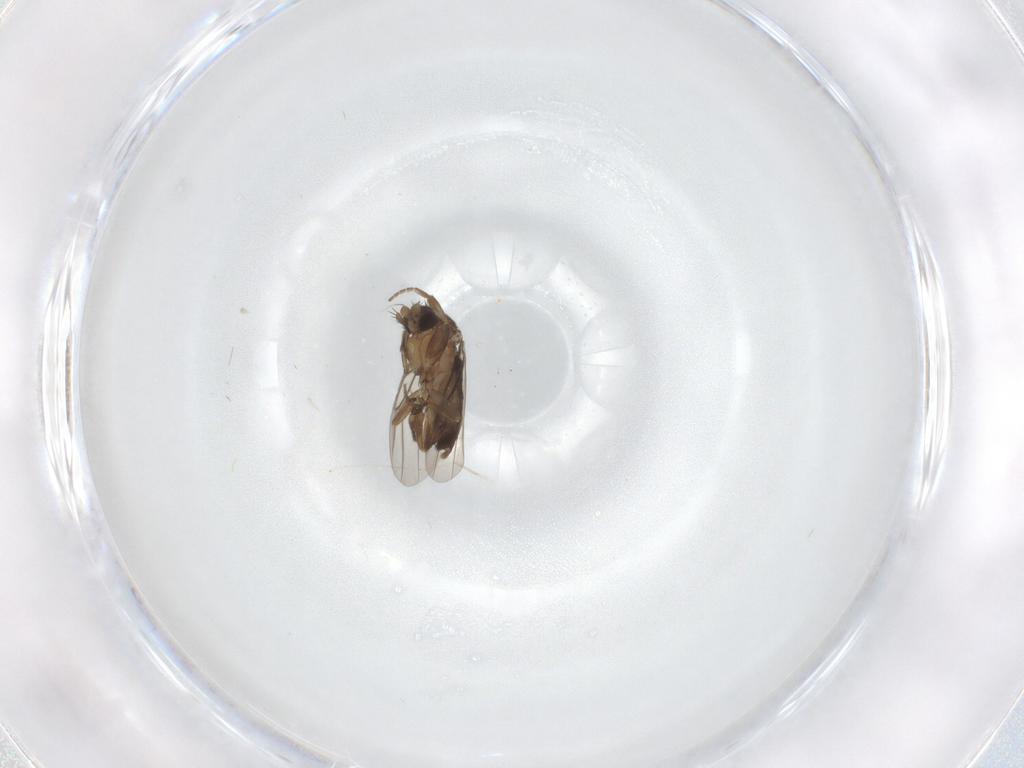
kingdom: Animalia
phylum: Arthropoda
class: Insecta
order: Diptera
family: Phoridae
